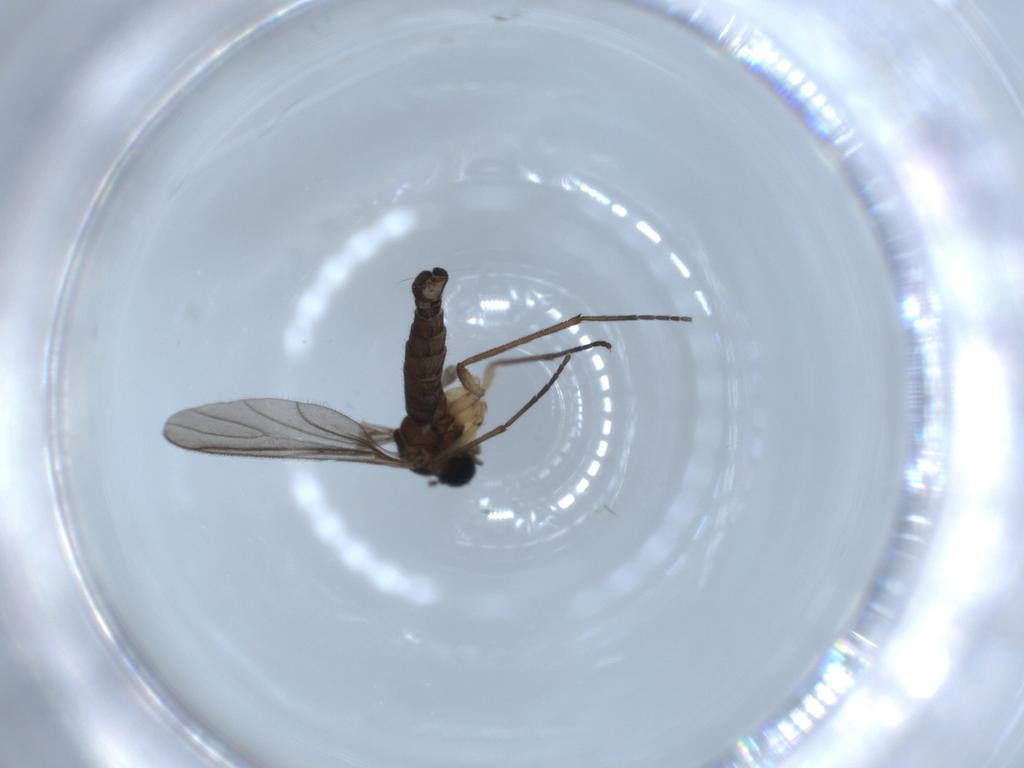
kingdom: Animalia
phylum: Arthropoda
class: Insecta
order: Diptera
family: Sciaridae
